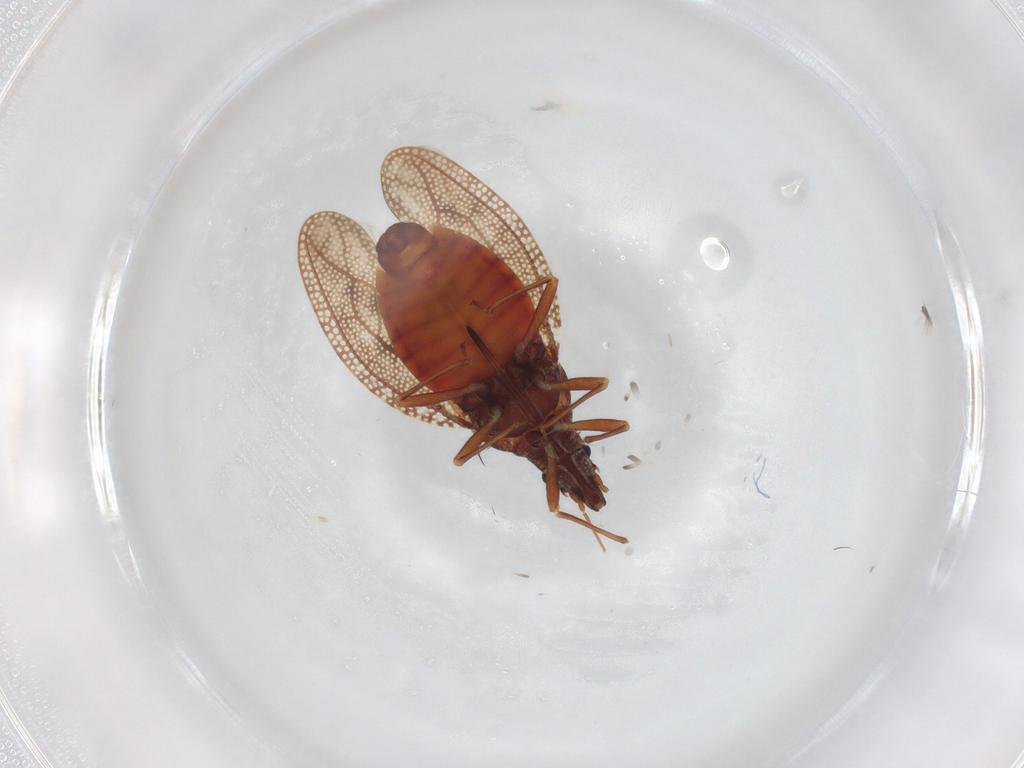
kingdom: Animalia
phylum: Arthropoda
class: Insecta
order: Hemiptera
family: Tingidae
